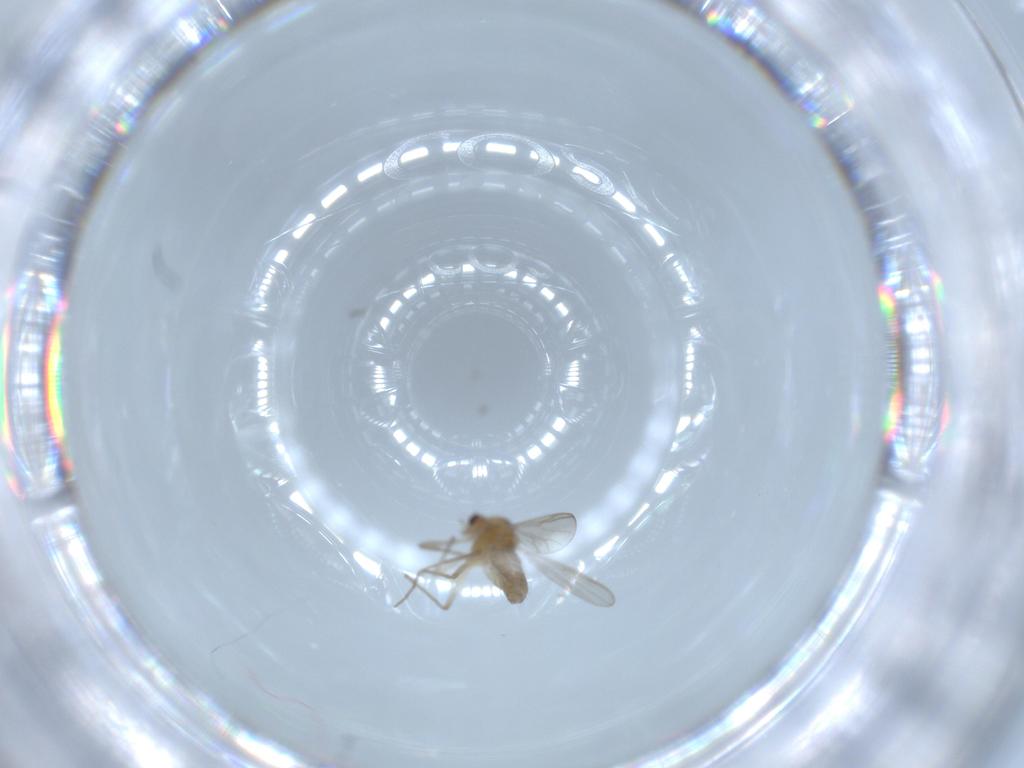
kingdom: Animalia
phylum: Arthropoda
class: Insecta
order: Diptera
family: Chironomidae
